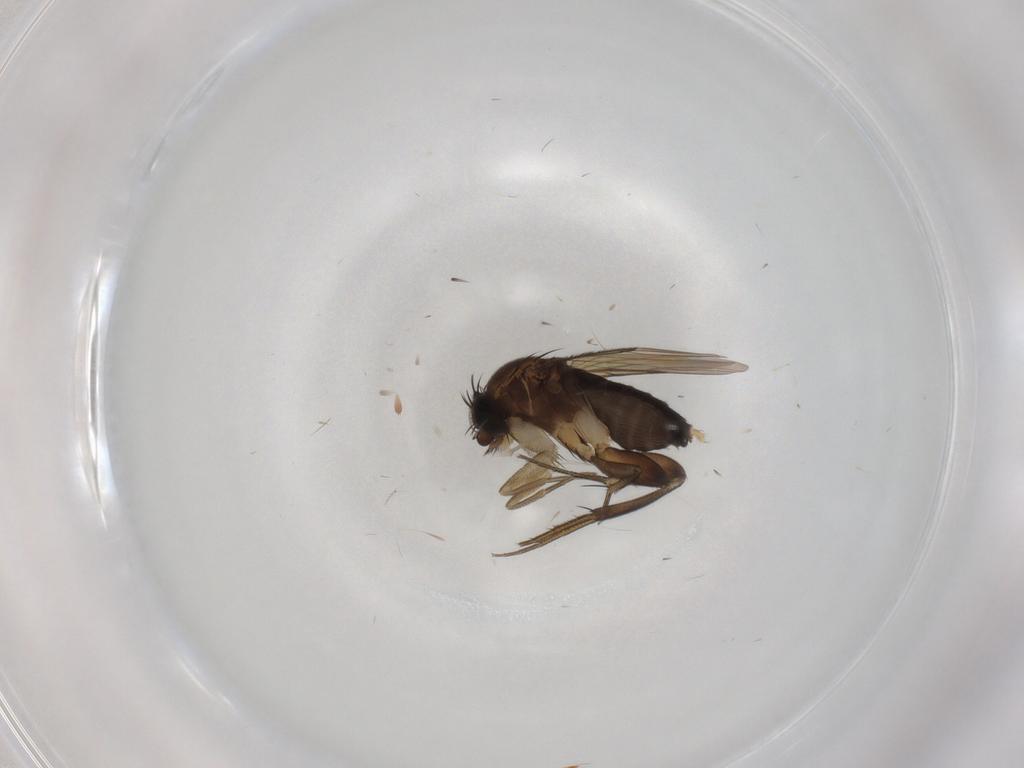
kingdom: Animalia
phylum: Arthropoda
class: Insecta
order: Diptera
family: Phoridae
